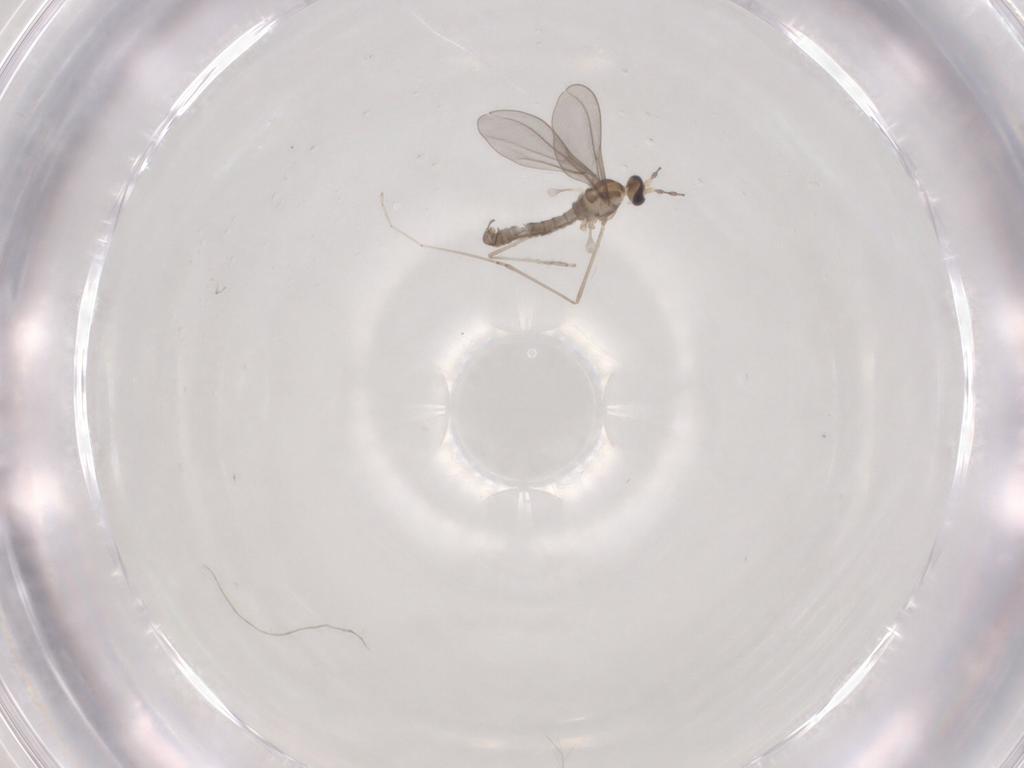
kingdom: Animalia
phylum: Arthropoda
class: Insecta
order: Diptera
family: Cecidomyiidae
